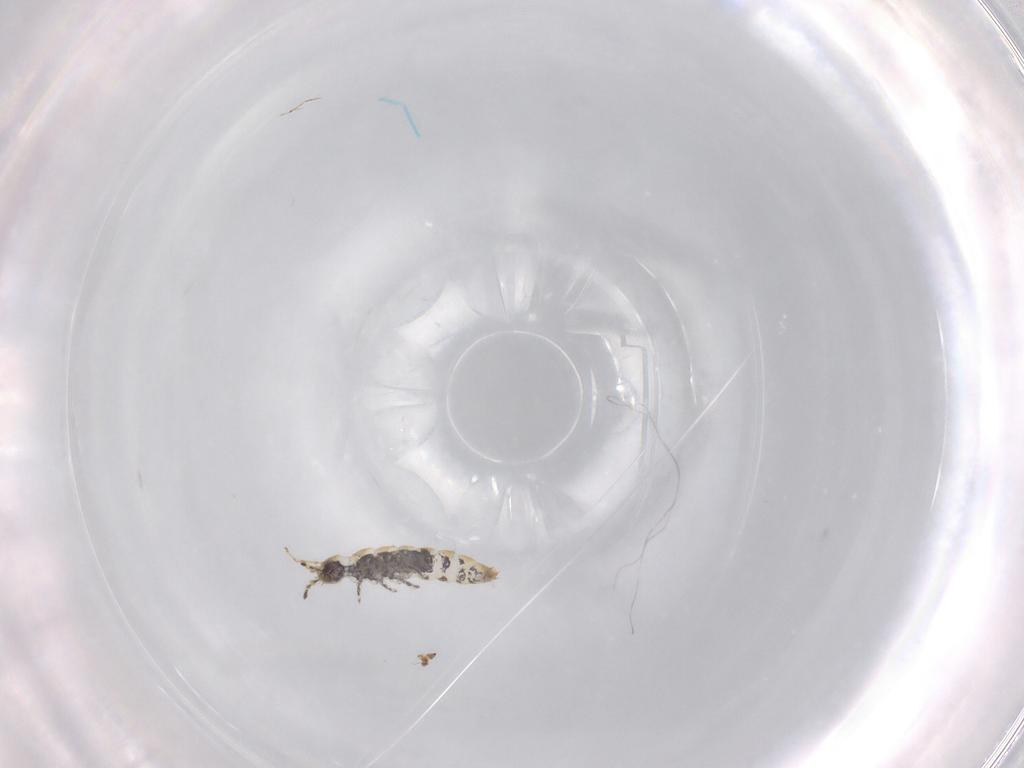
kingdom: Animalia
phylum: Arthropoda
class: Collembola
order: Entomobryomorpha
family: Isotomidae
